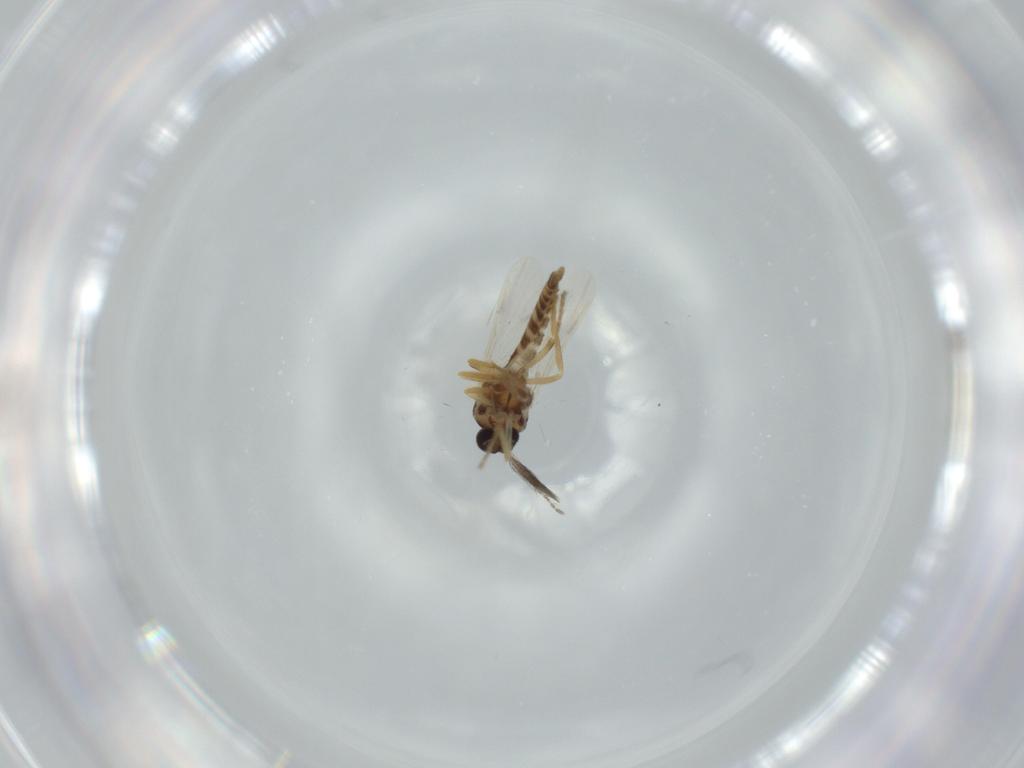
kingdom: Animalia
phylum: Arthropoda
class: Insecta
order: Diptera
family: Ceratopogonidae
